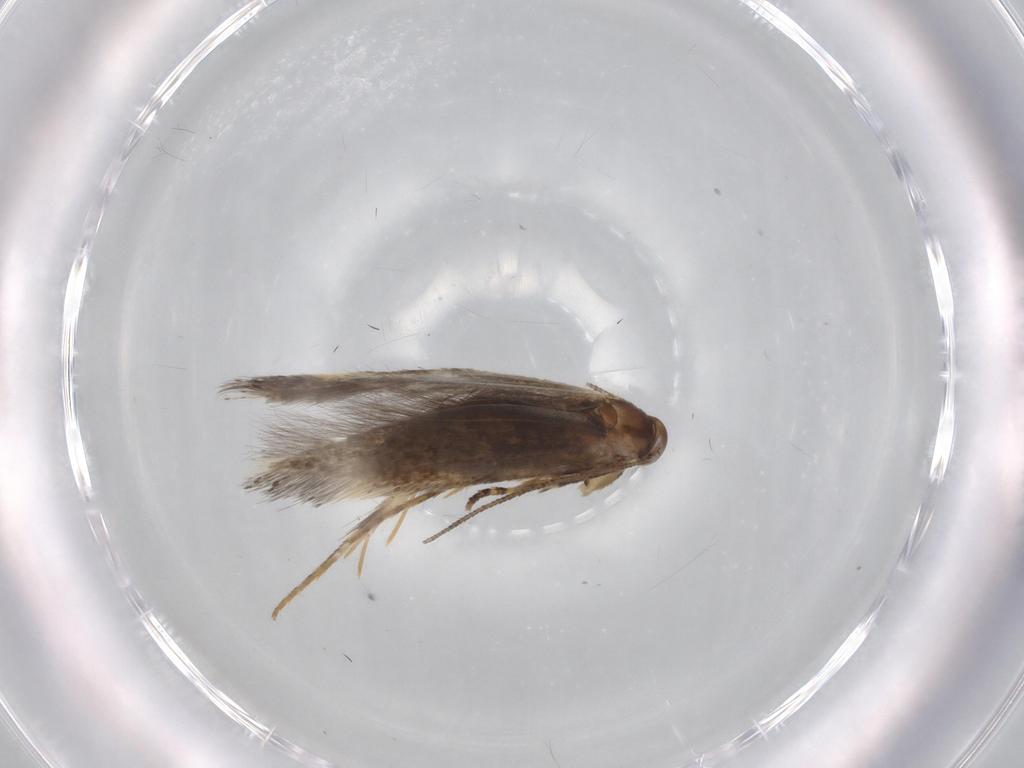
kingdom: Animalia
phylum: Arthropoda
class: Insecta
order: Lepidoptera
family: Elachistidae
